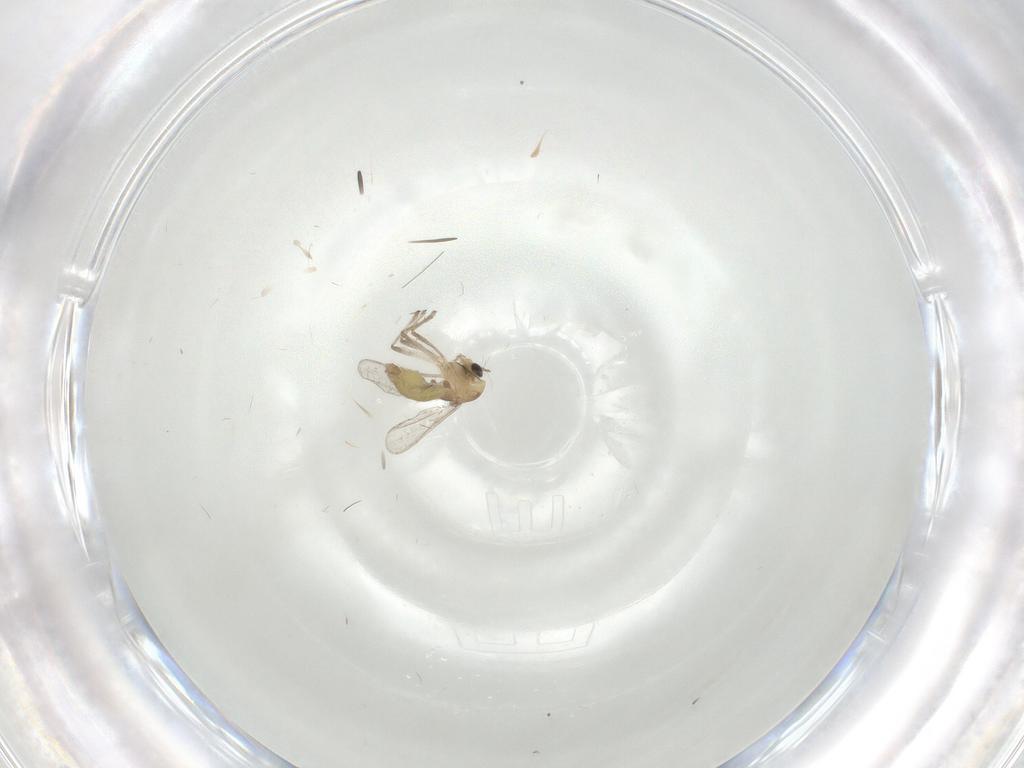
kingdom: Animalia
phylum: Arthropoda
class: Insecta
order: Diptera
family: Chironomidae
